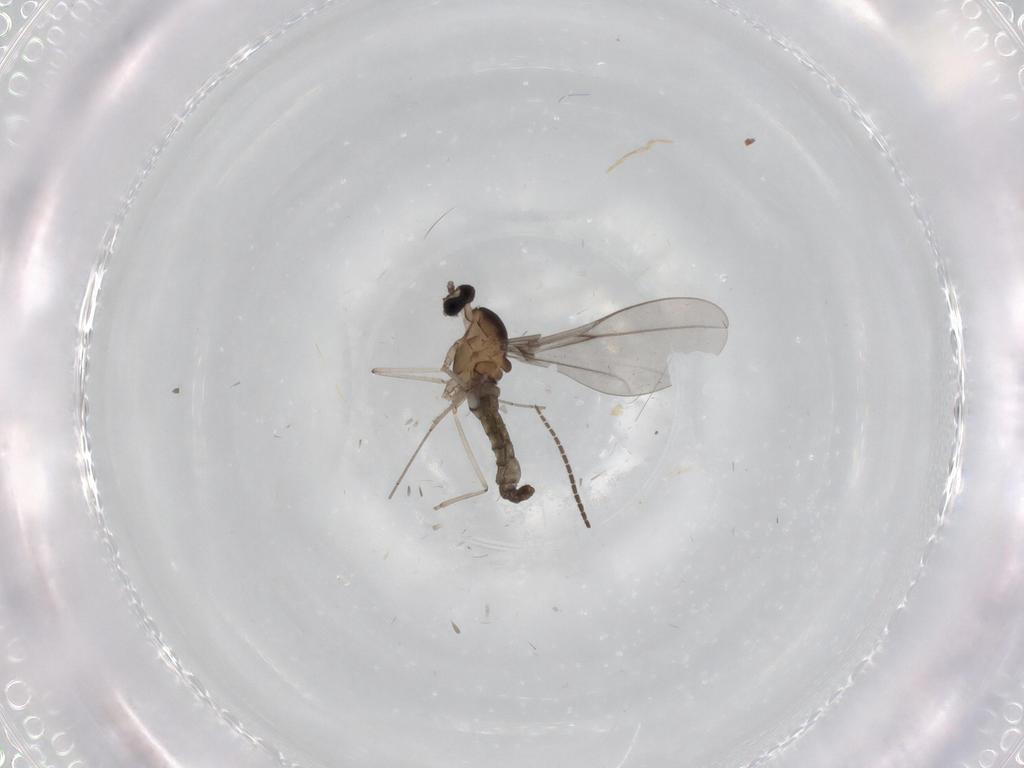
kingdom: Animalia
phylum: Arthropoda
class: Insecta
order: Diptera
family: Cecidomyiidae
